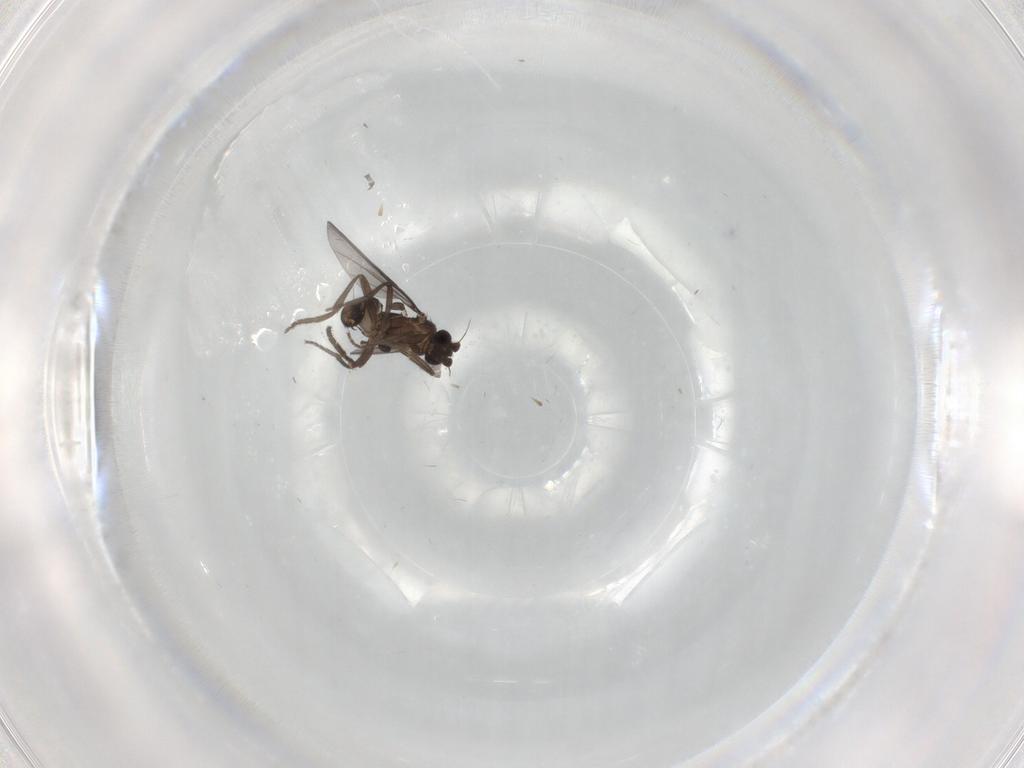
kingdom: Animalia
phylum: Arthropoda
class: Insecta
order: Diptera
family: Cecidomyiidae
